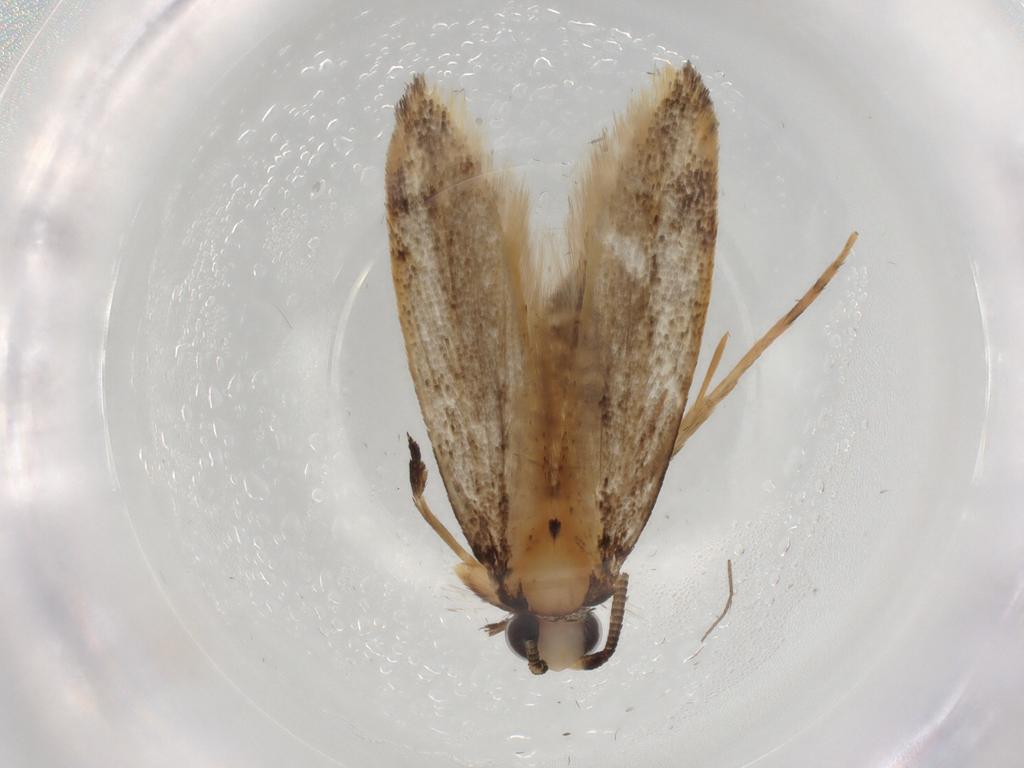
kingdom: Animalia
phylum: Arthropoda
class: Insecta
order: Lepidoptera
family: Tineidae
